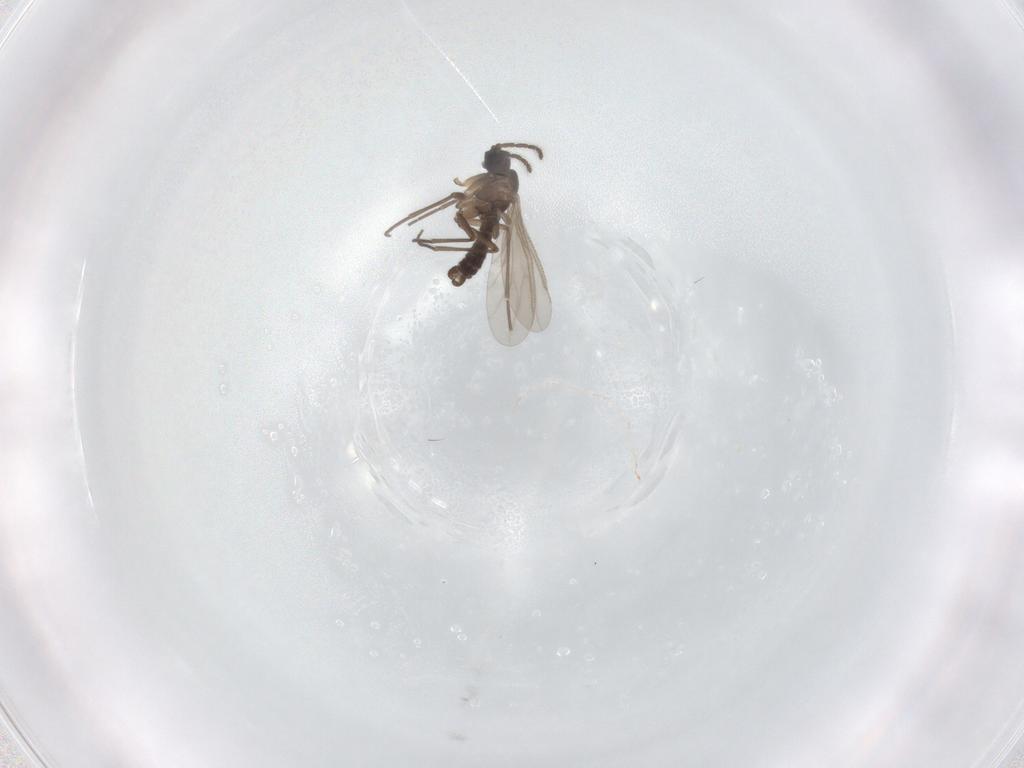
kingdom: Animalia
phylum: Arthropoda
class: Insecta
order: Diptera
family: Sciaridae
